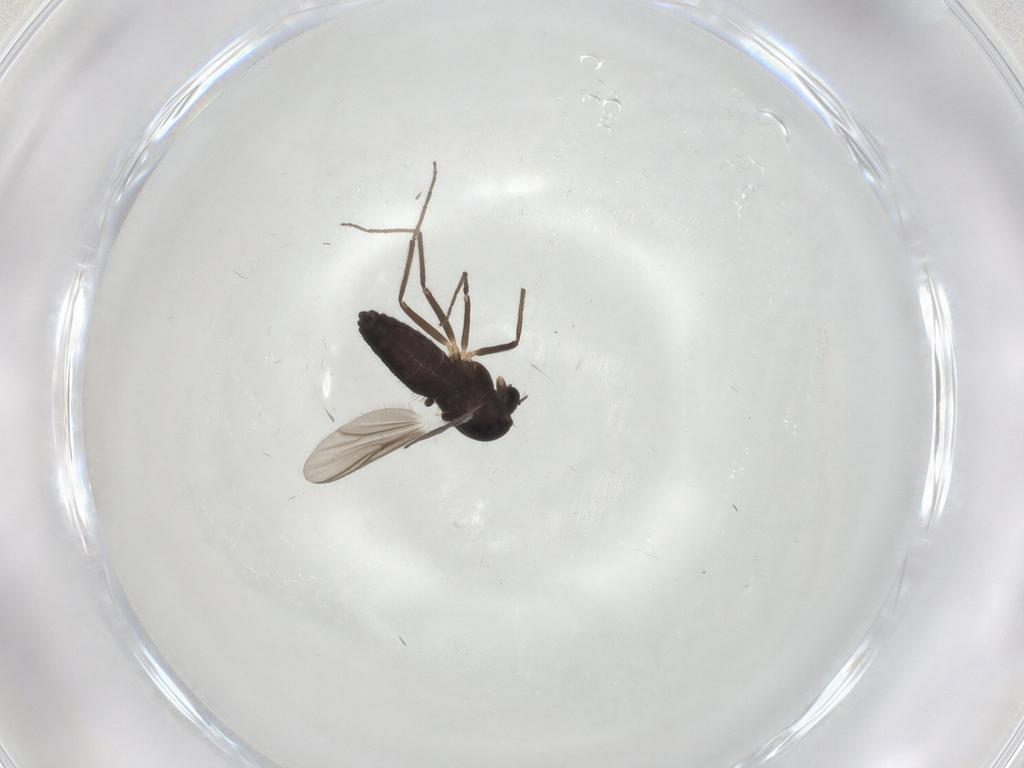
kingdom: Animalia
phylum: Arthropoda
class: Insecta
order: Diptera
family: Chironomidae
